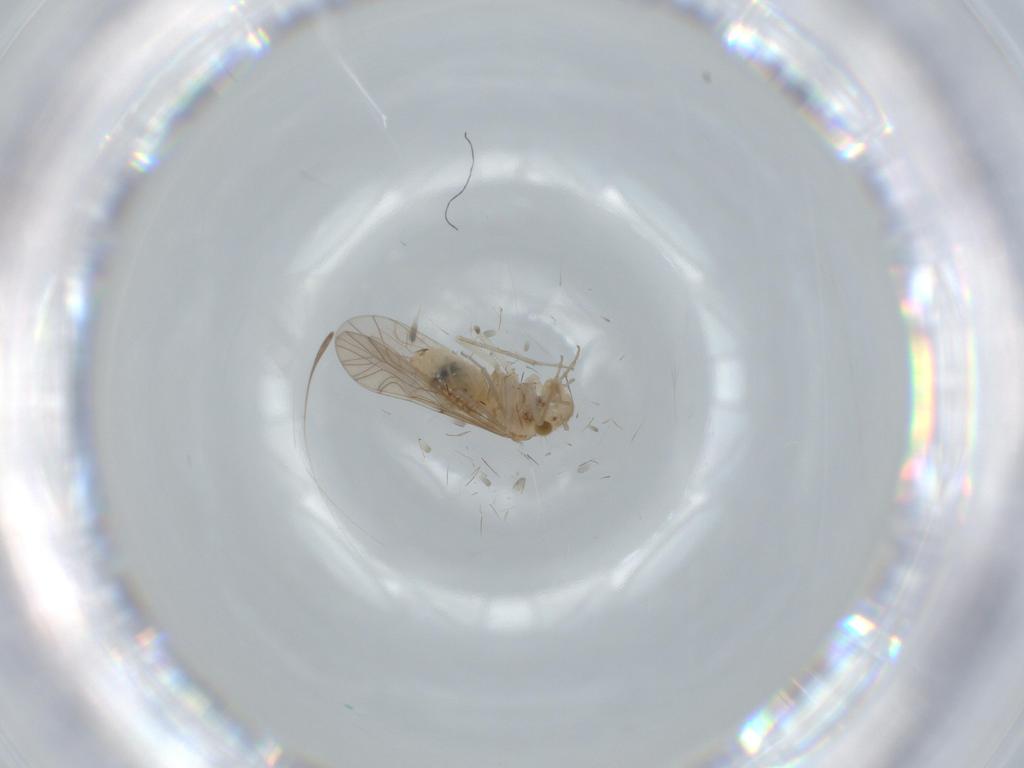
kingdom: Animalia
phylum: Arthropoda
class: Insecta
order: Psocodea
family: Lachesillidae
